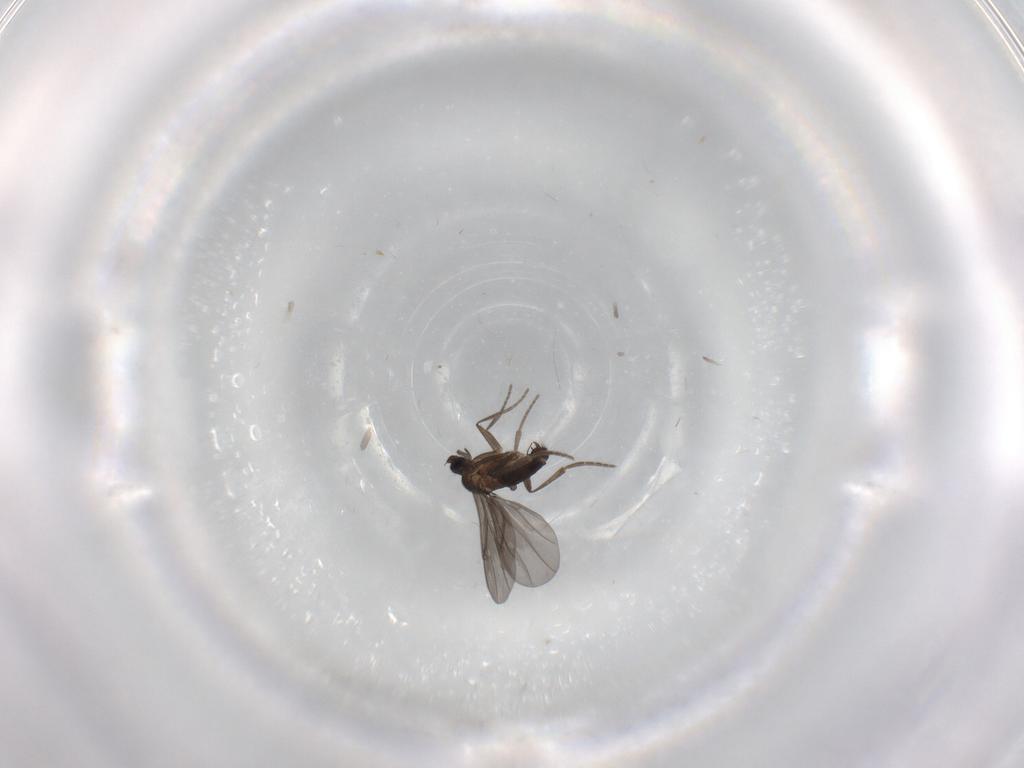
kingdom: Animalia
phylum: Arthropoda
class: Insecta
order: Diptera
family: Phoridae
